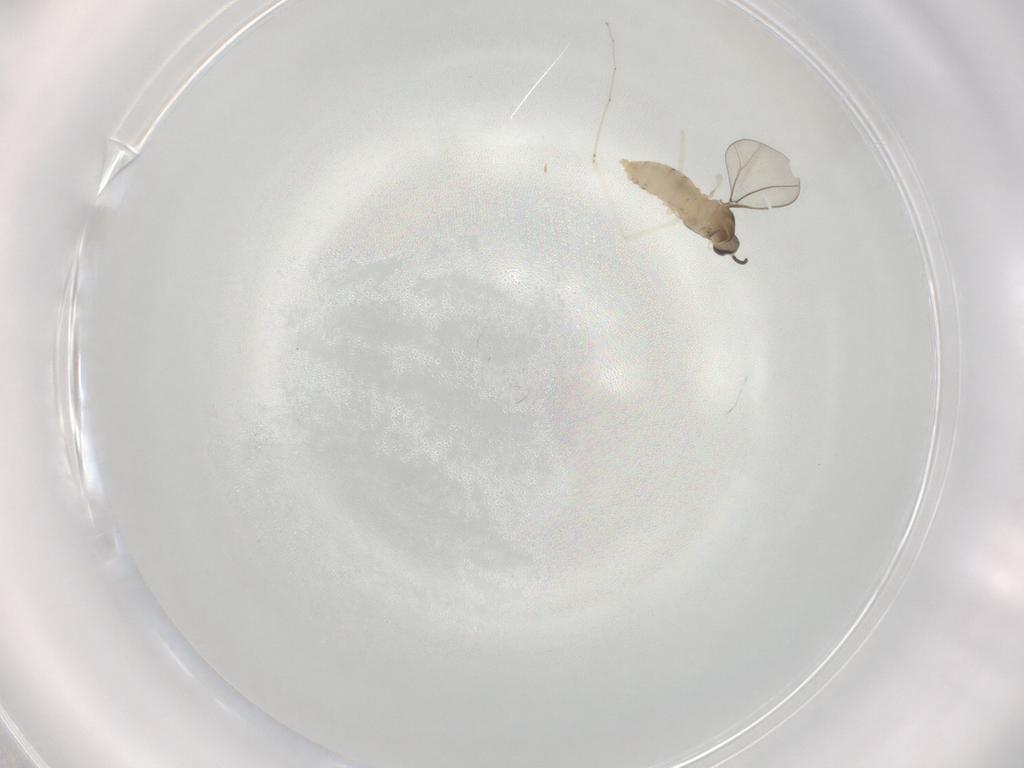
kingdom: Animalia
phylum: Arthropoda
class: Insecta
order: Diptera
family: Cecidomyiidae
